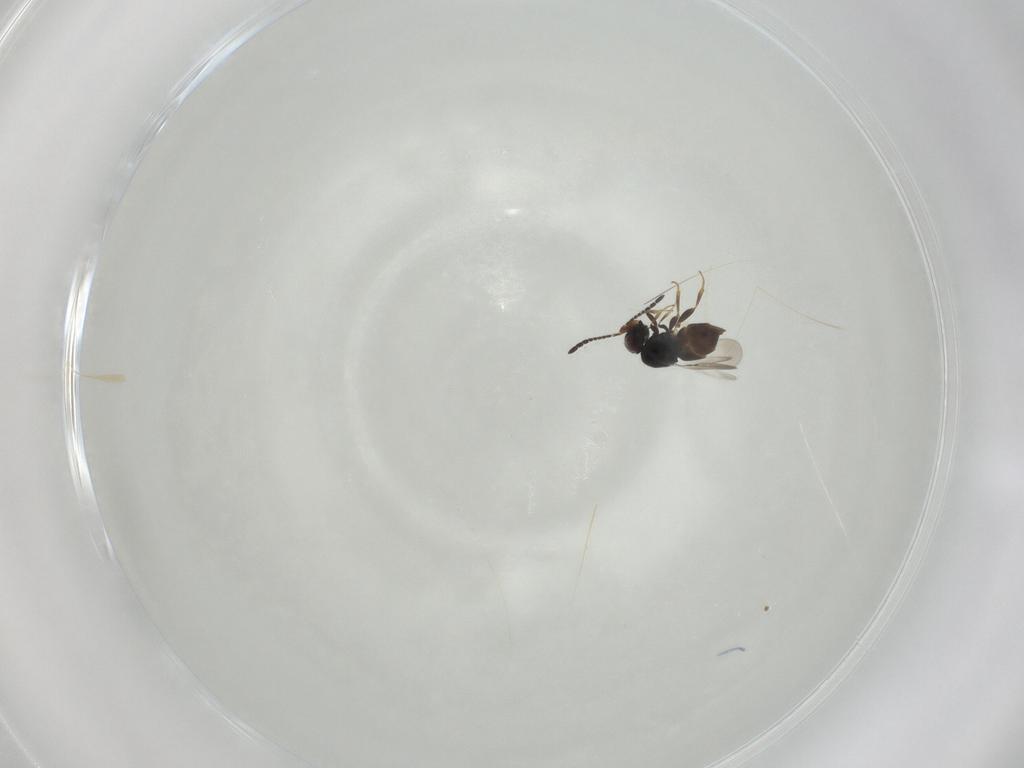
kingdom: Animalia
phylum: Arthropoda
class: Insecta
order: Diptera
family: Muscidae
